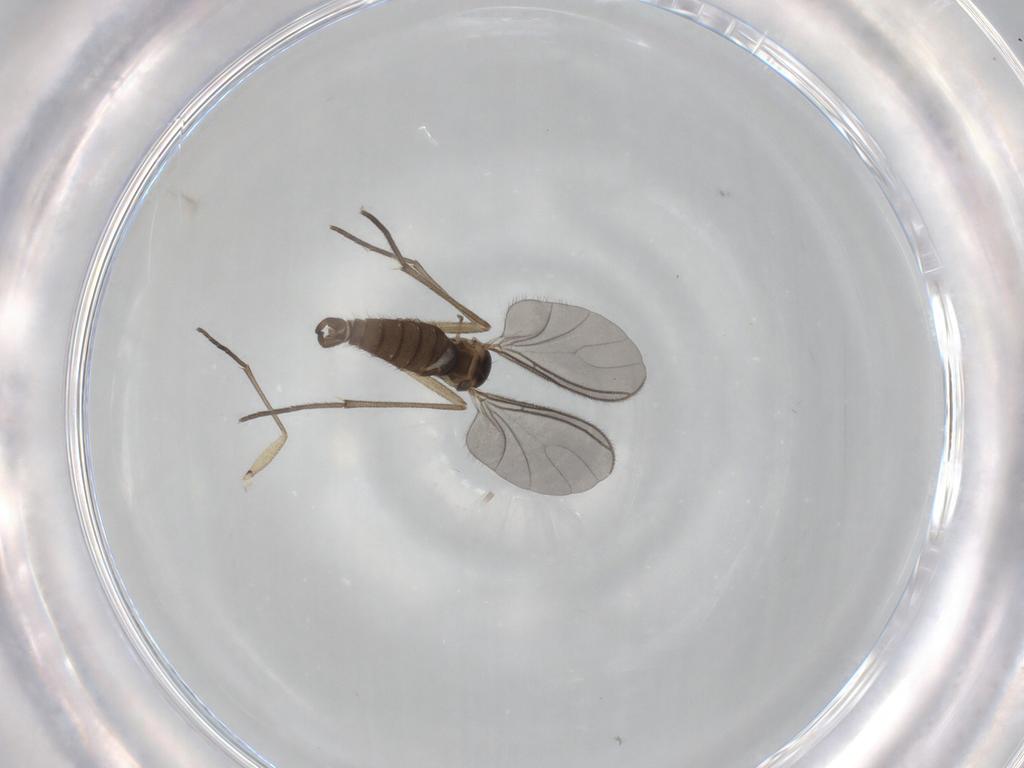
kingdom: Animalia
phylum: Arthropoda
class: Insecta
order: Diptera
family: Sciaridae
